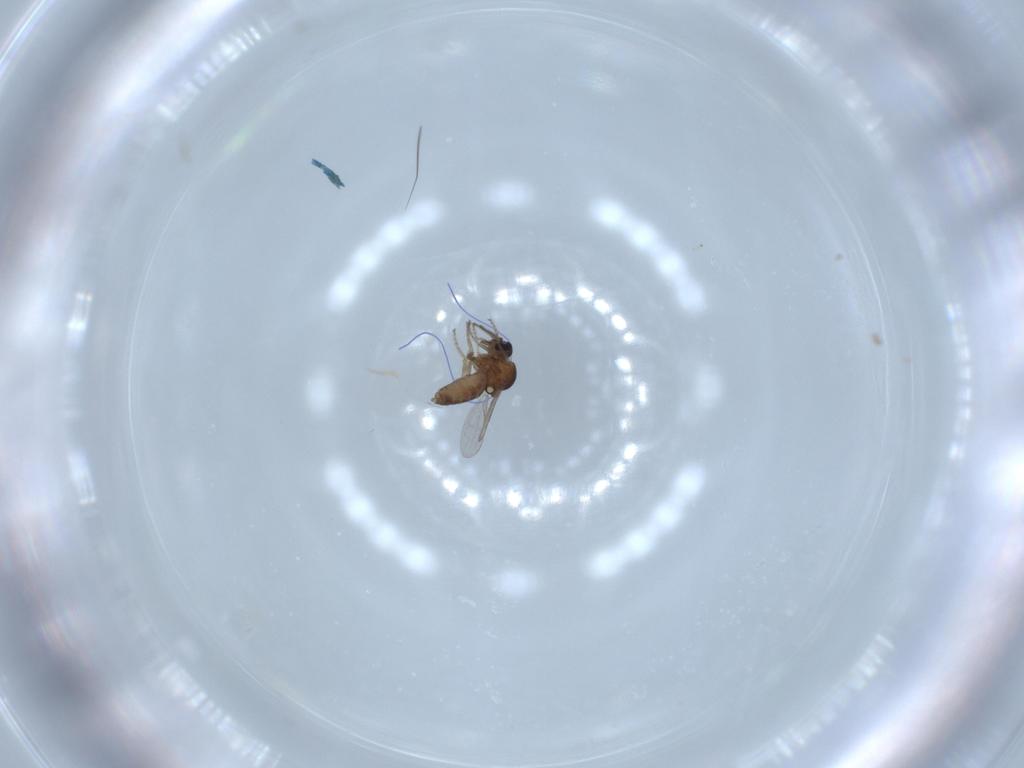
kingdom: Animalia
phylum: Arthropoda
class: Insecta
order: Diptera
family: Ceratopogonidae
